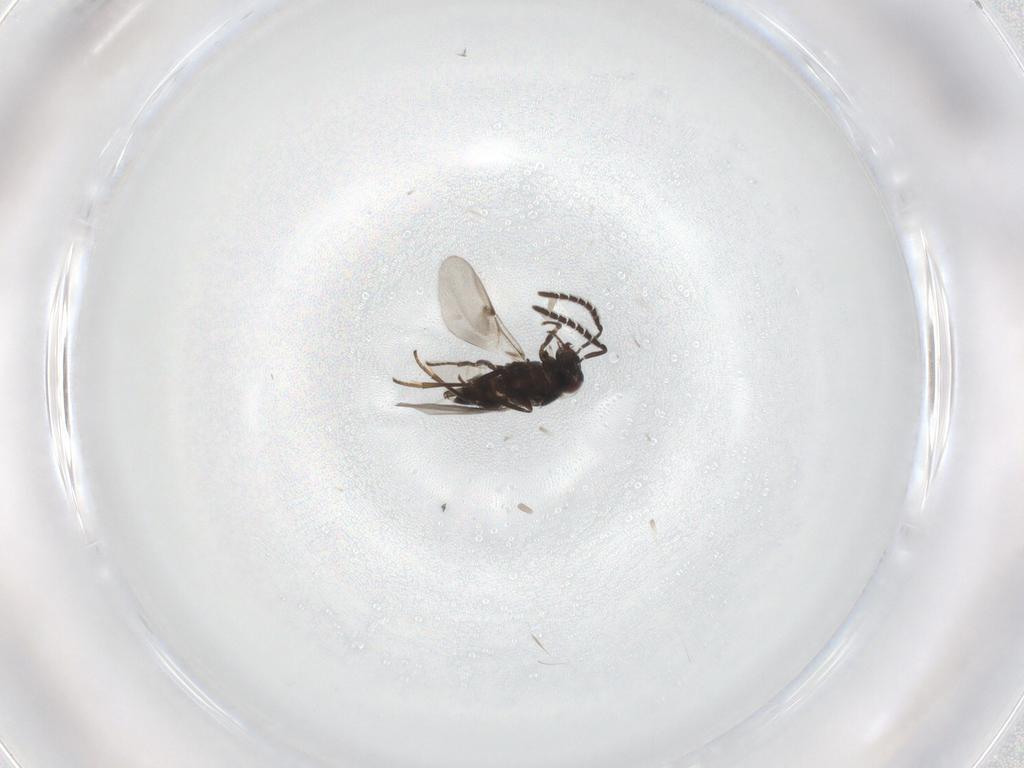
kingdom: Animalia
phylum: Arthropoda
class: Insecta
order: Hymenoptera
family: Encyrtidae
